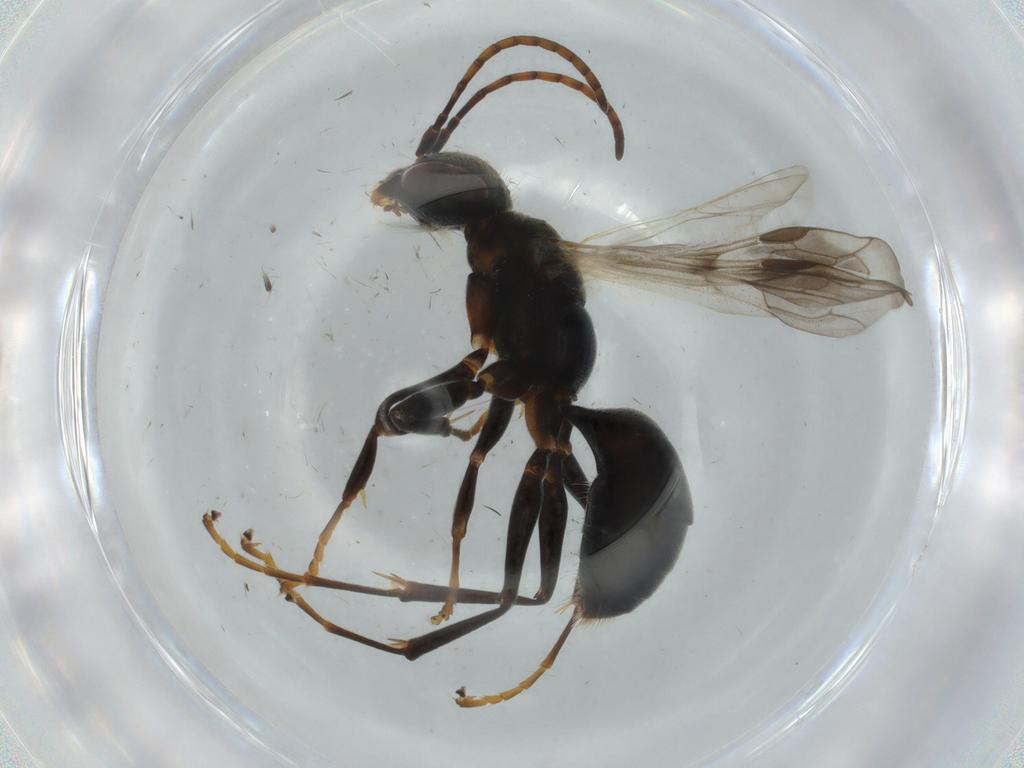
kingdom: Animalia
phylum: Arthropoda
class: Insecta
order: Hymenoptera
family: Pompilidae
